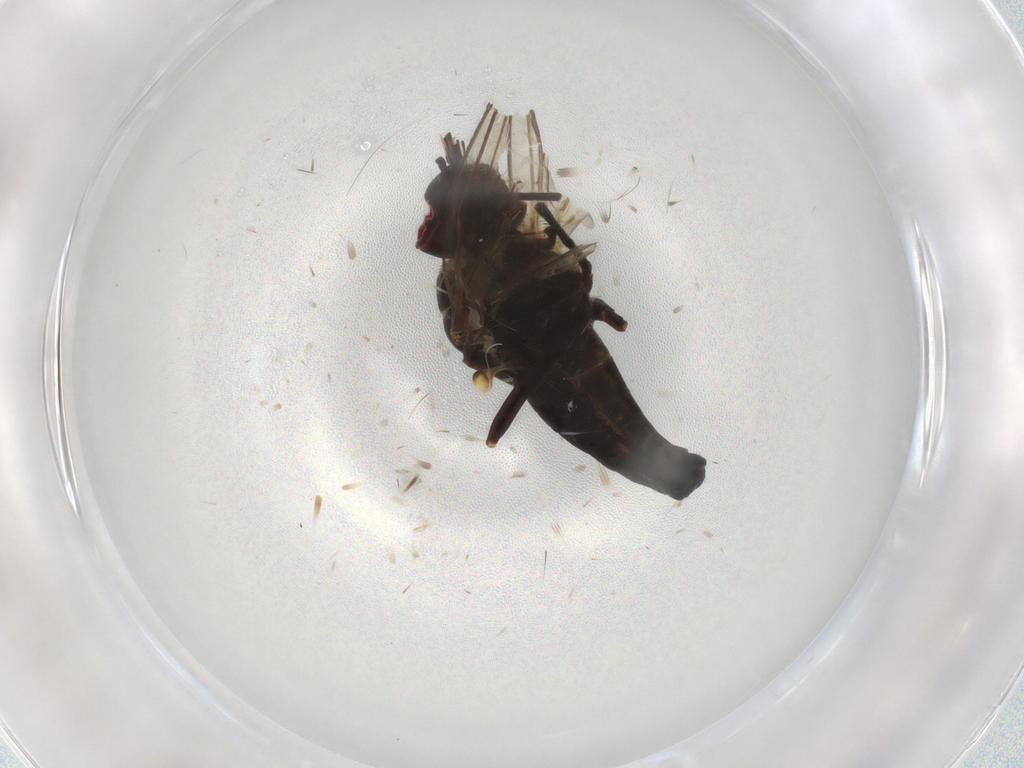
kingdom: Animalia
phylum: Arthropoda
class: Insecta
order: Diptera
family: Bombyliidae
